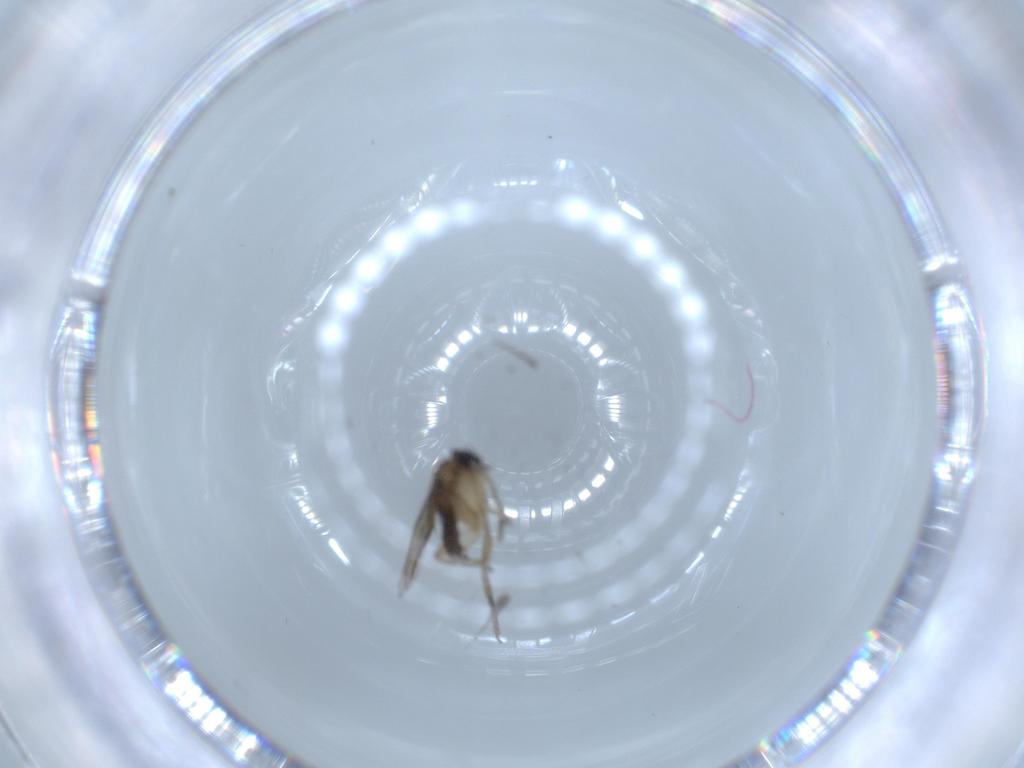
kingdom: Animalia
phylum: Arthropoda
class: Insecta
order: Diptera
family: Phoridae
